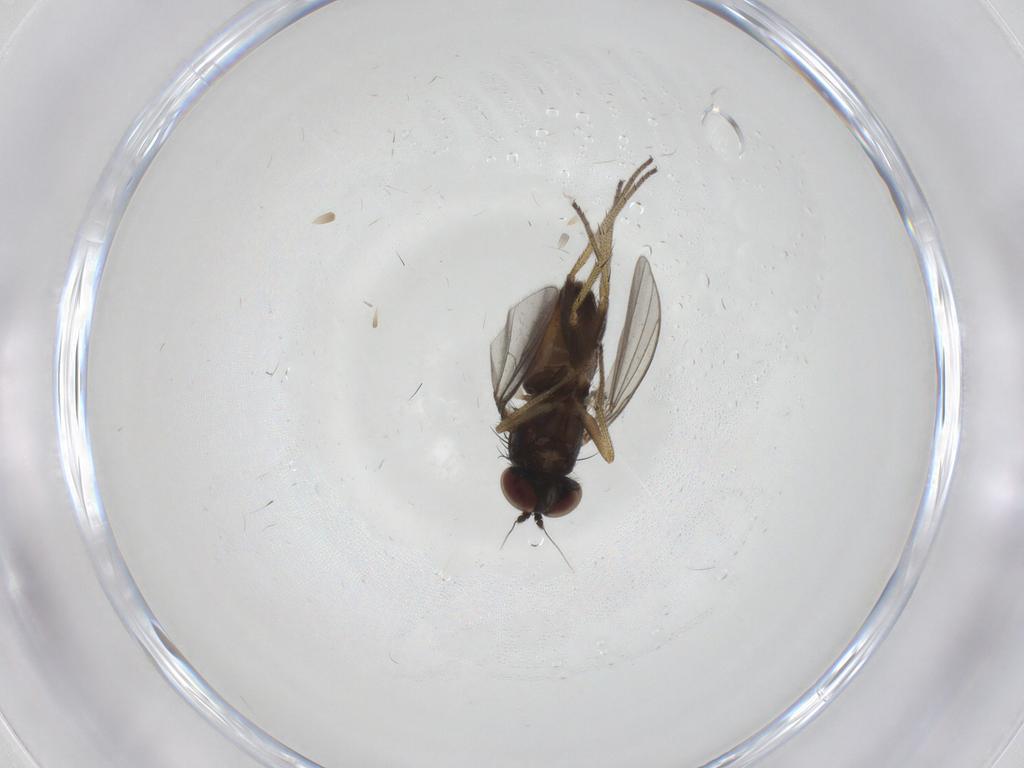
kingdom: Animalia
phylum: Arthropoda
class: Insecta
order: Diptera
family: Dolichopodidae
